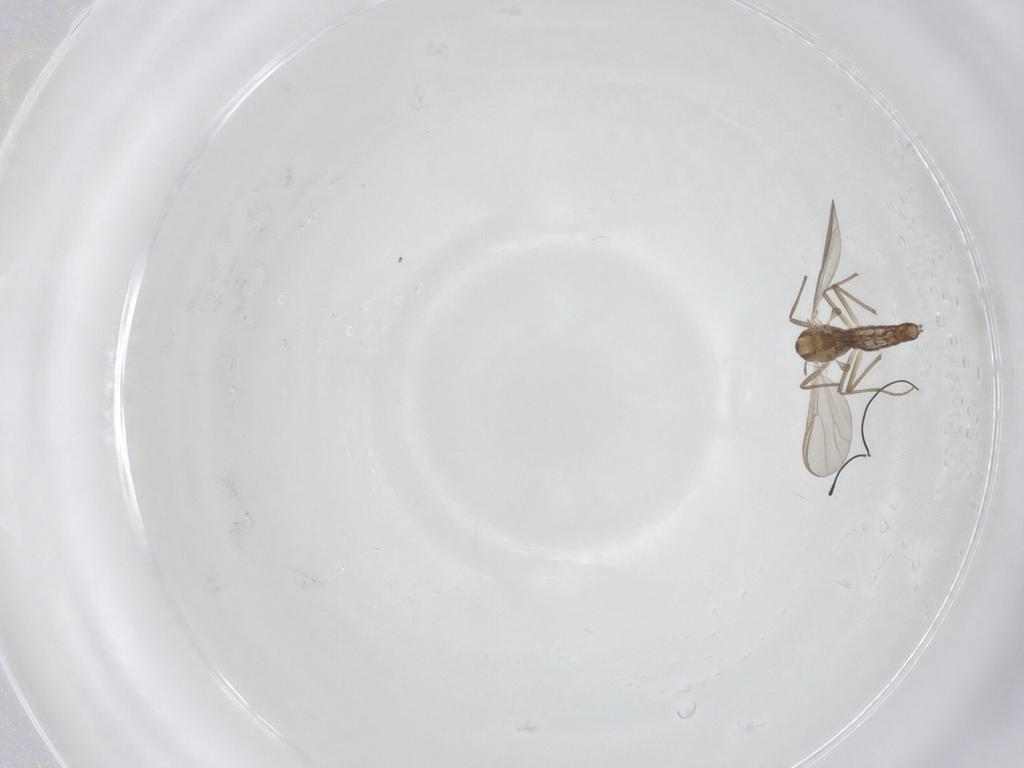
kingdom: Animalia
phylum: Arthropoda
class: Insecta
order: Diptera
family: Chironomidae
